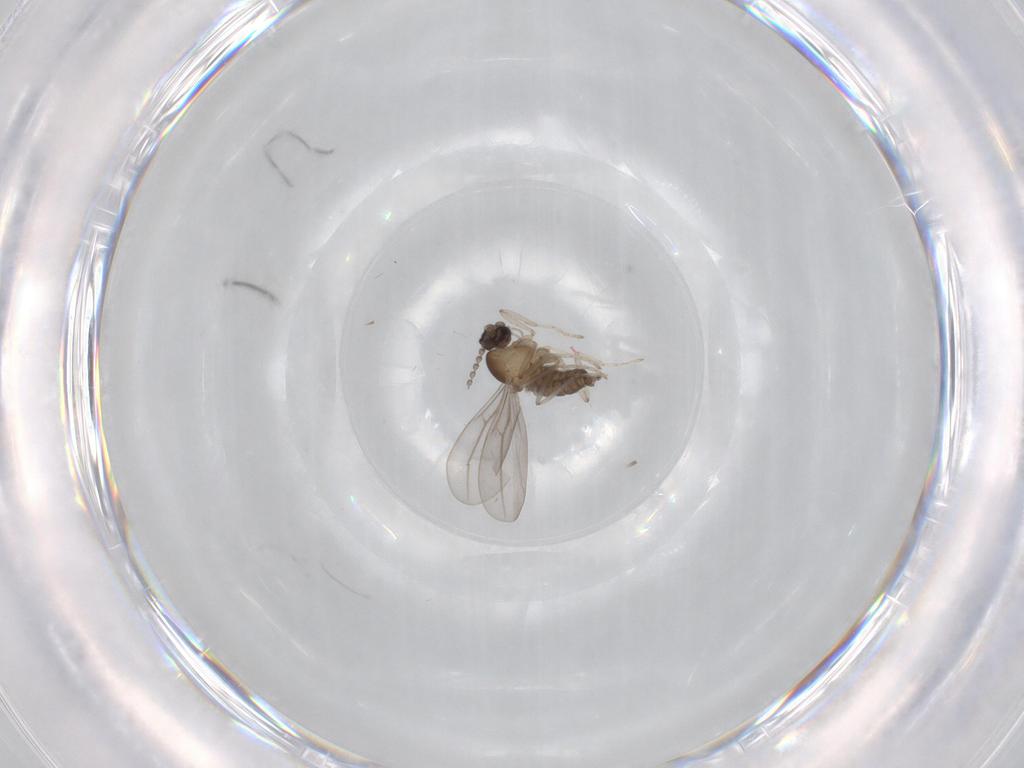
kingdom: Animalia
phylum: Arthropoda
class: Insecta
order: Diptera
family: Cecidomyiidae
